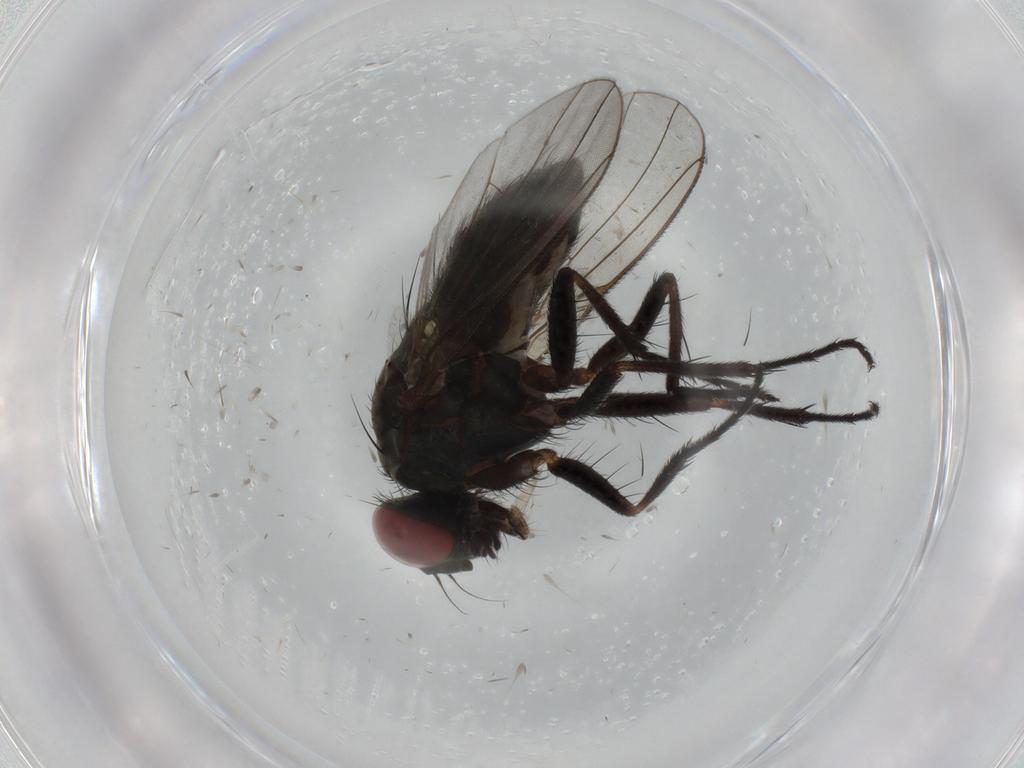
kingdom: Animalia
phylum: Arthropoda
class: Insecta
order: Diptera
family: Muscidae
